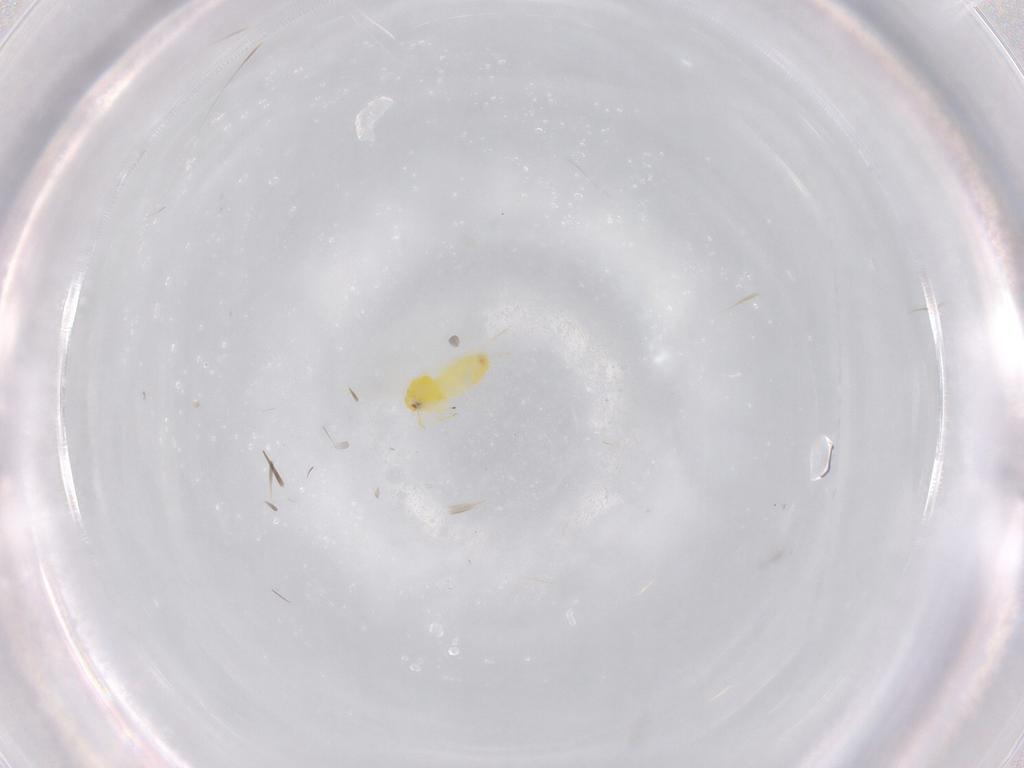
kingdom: Animalia
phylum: Arthropoda
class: Insecta
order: Hemiptera
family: Aleyrodidae
